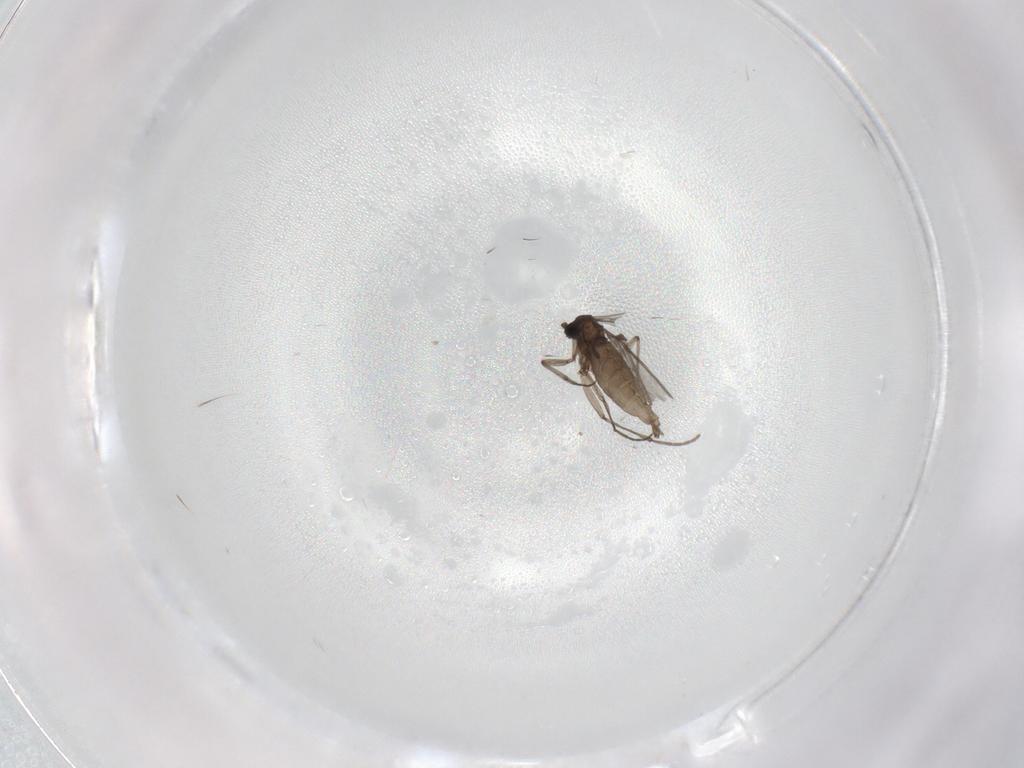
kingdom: Animalia
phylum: Arthropoda
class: Insecta
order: Diptera
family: Sciaridae
